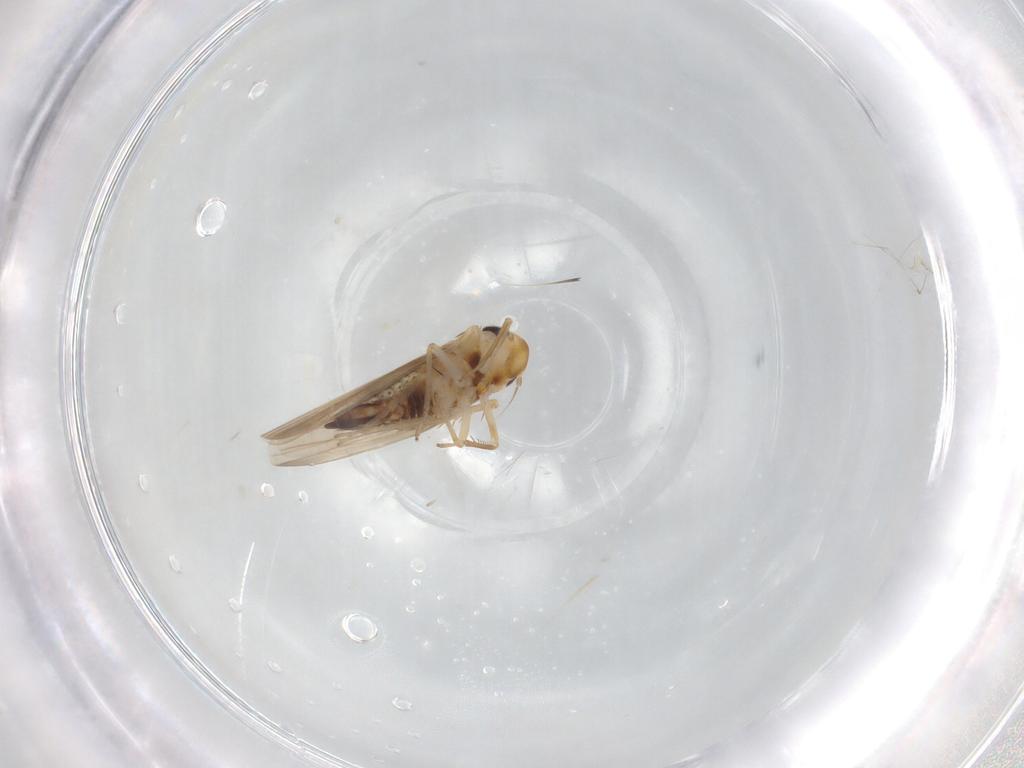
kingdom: Animalia
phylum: Arthropoda
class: Insecta
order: Hemiptera
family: Cicadellidae
